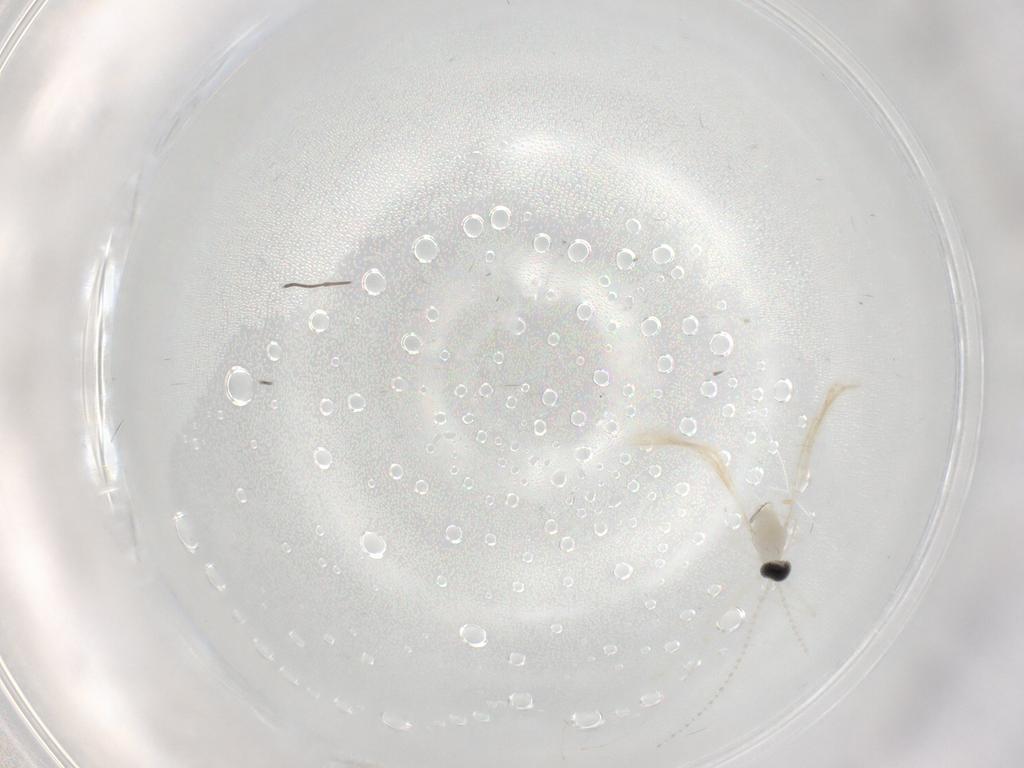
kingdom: Animalia
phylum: Arthropoda
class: Insecta
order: Diptera
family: Cecidomyiidae
